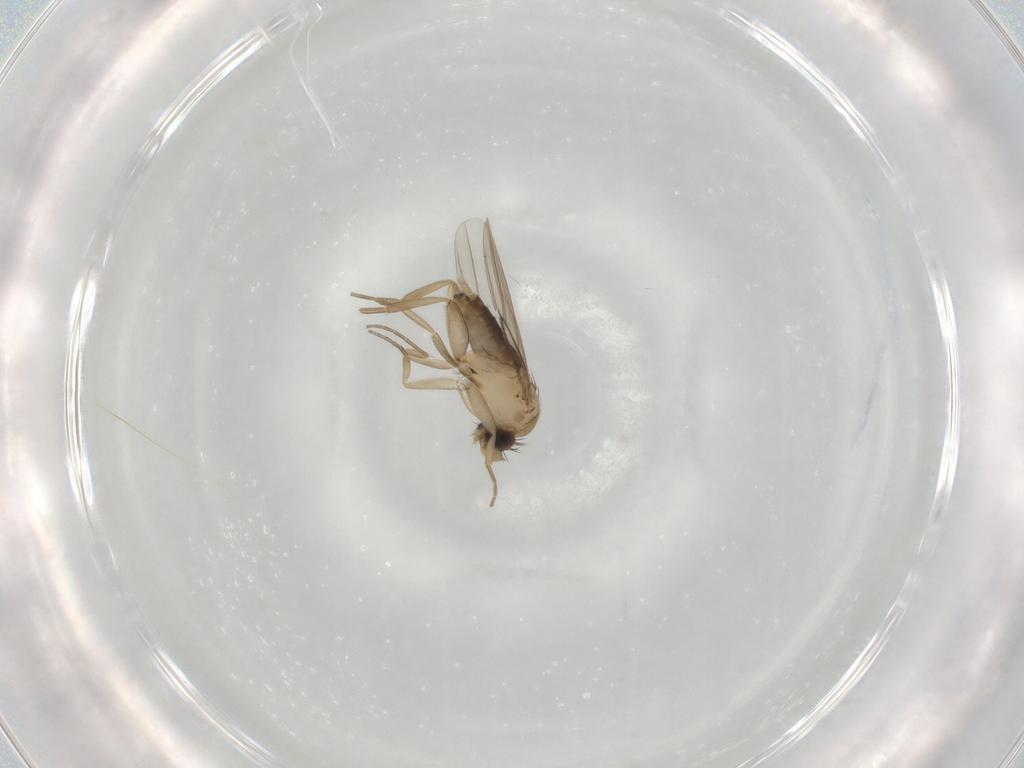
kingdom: Animalia
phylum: Arthropoda
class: Insecta
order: Diptera
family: Phoridae
